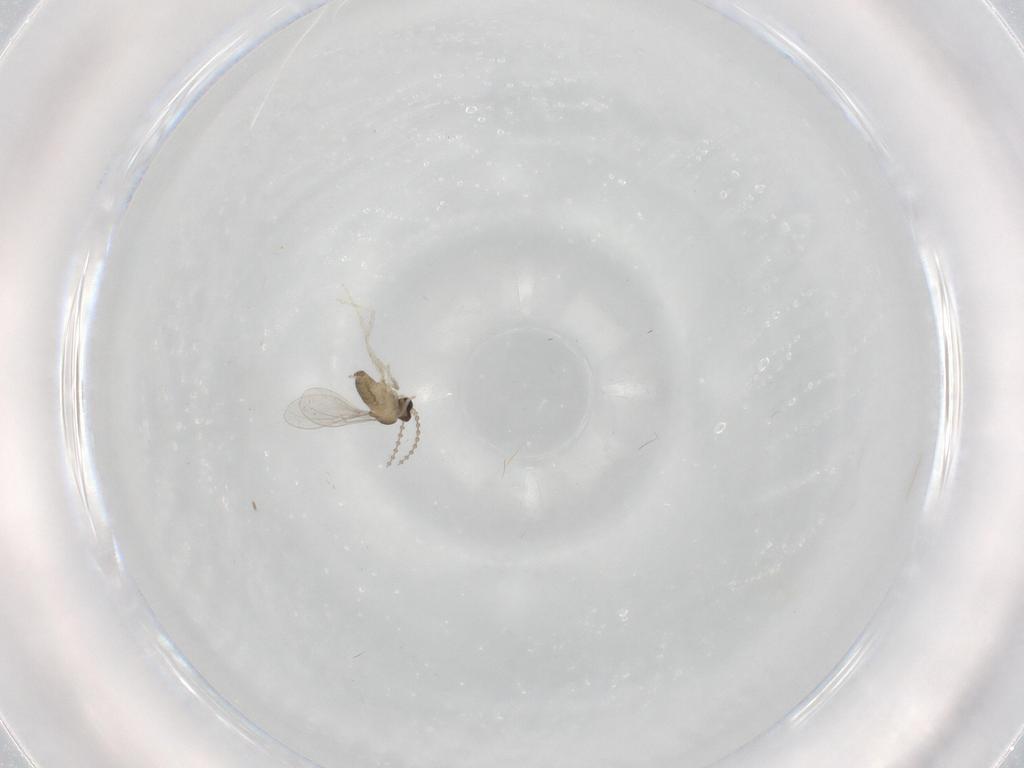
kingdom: Animalia
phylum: Arthropoda
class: Insecta
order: Diptera
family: Cecidomyiidae
